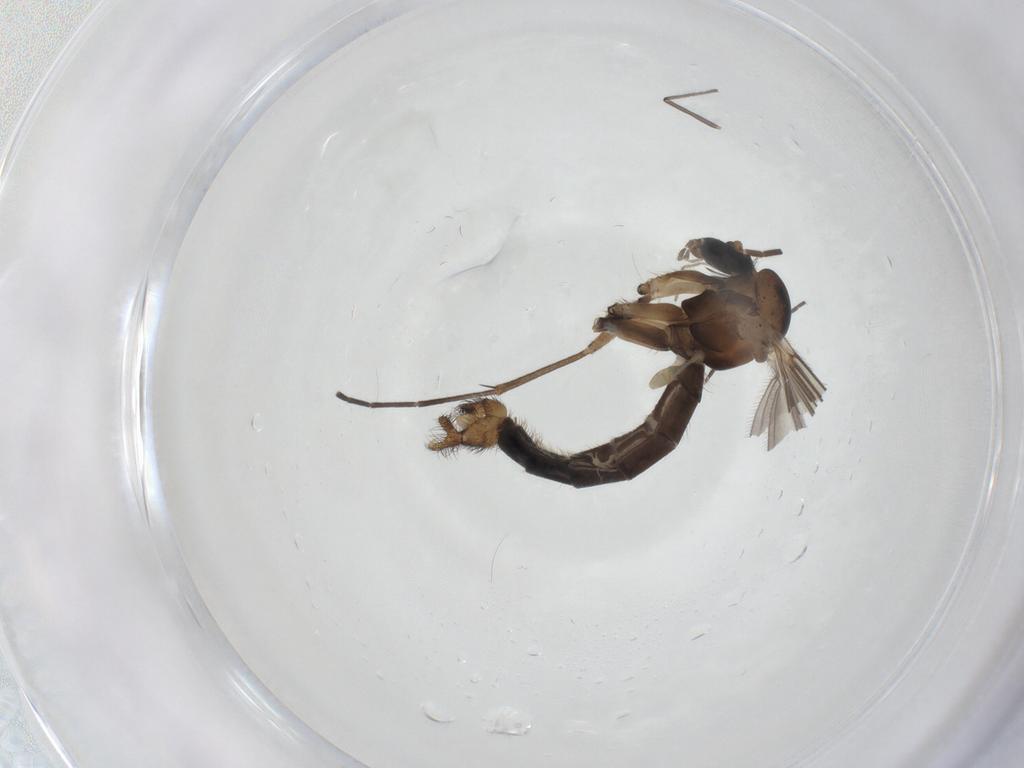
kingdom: Animalia
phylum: Arthropoda
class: Insecta
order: Diptera
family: Mycetophilidae
